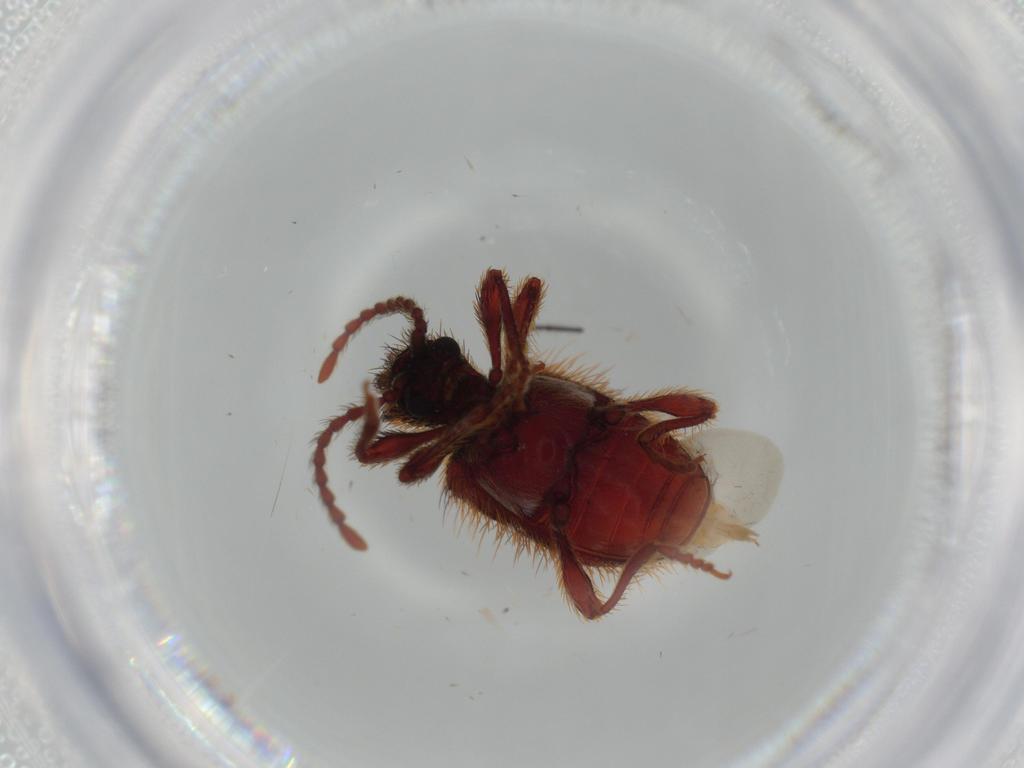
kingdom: Animalia
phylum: Arthropoda
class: Insecta
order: Coleoptera
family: Ptinidae
